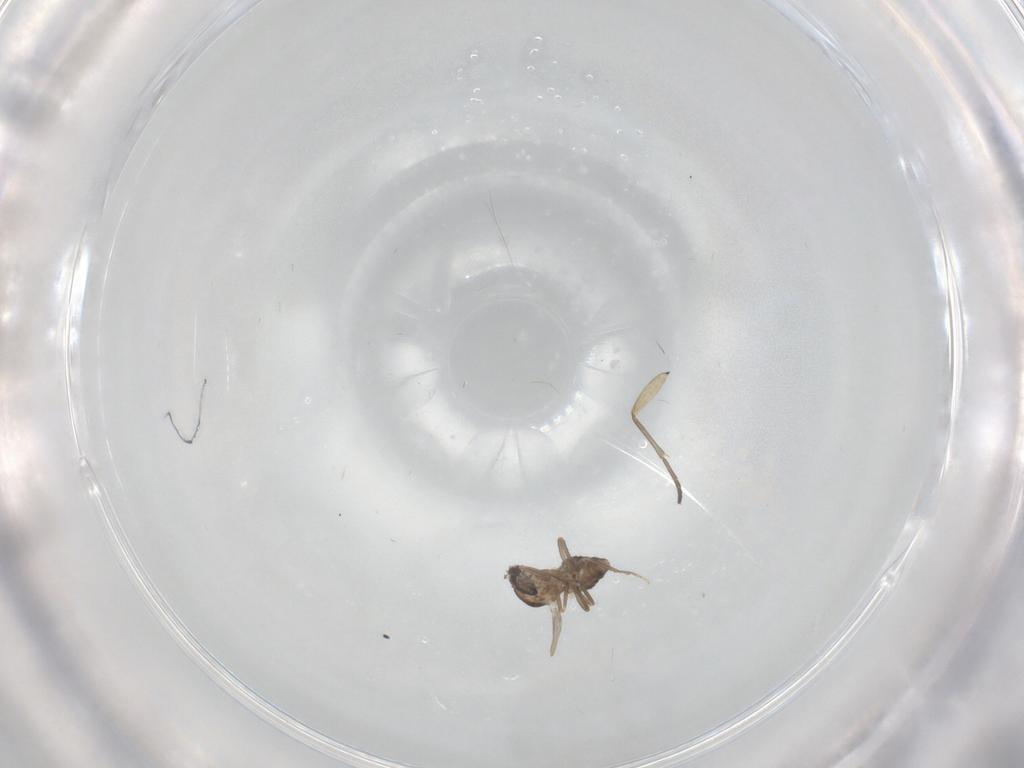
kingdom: Animalia
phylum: Arthropoda
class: Insecta
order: Diptera
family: Ceratopogonidae
